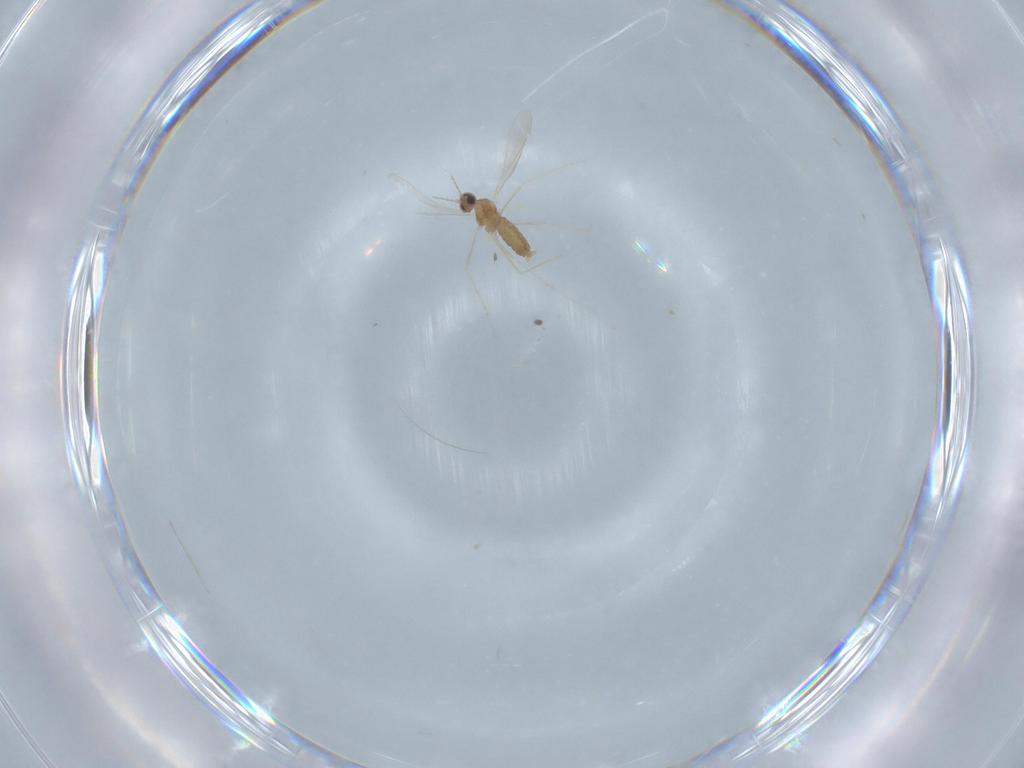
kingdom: Animalia
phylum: Arthropoda
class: Insecta
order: Diptera
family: Cecidomyiidae
